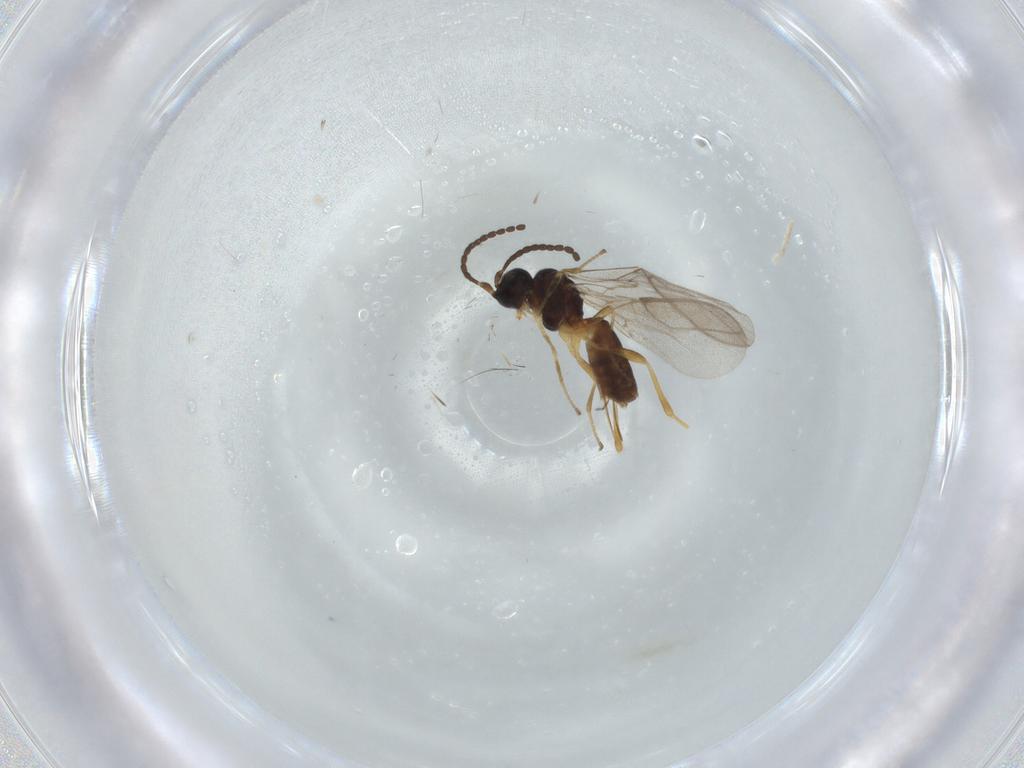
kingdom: Animalia
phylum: Arthropoda
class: Insecta
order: Hymenoptera
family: Braconidae
